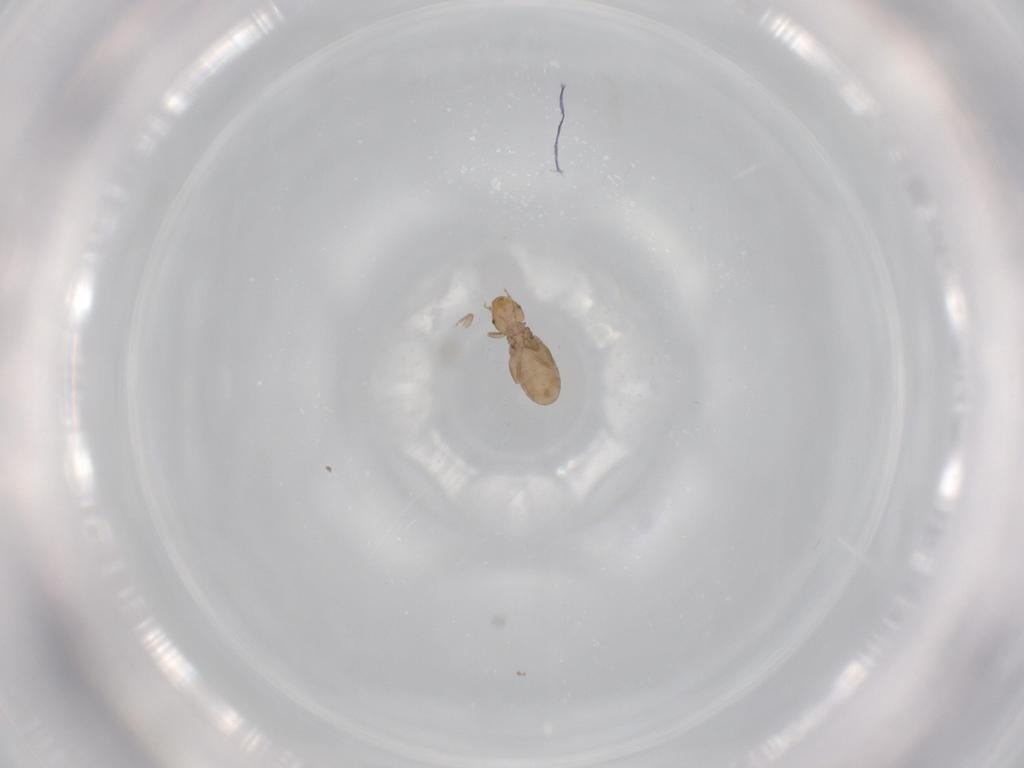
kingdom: Animalia
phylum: Arthropoda
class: Insecta
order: Psocodea
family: Liposcelididae
